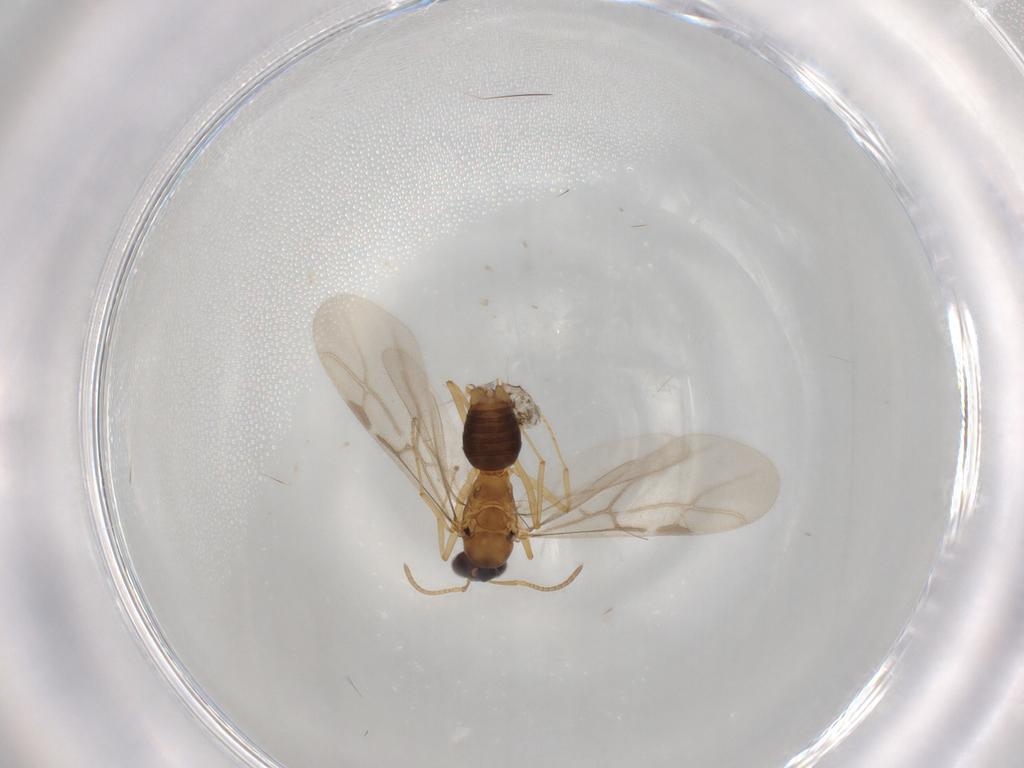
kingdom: Animalia
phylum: Arthropoda
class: Insecta
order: Hymenoptera
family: Formicidae
